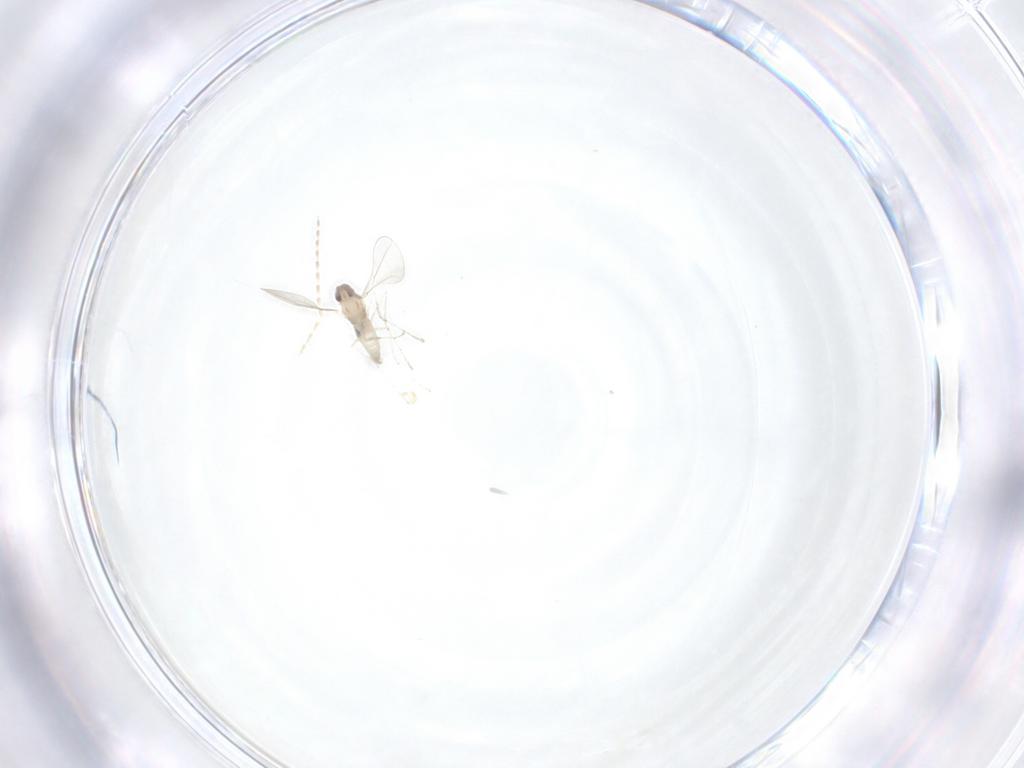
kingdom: Animalia
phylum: Arthropoda
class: Insecta
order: Diptera
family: Cecidomyiidae
